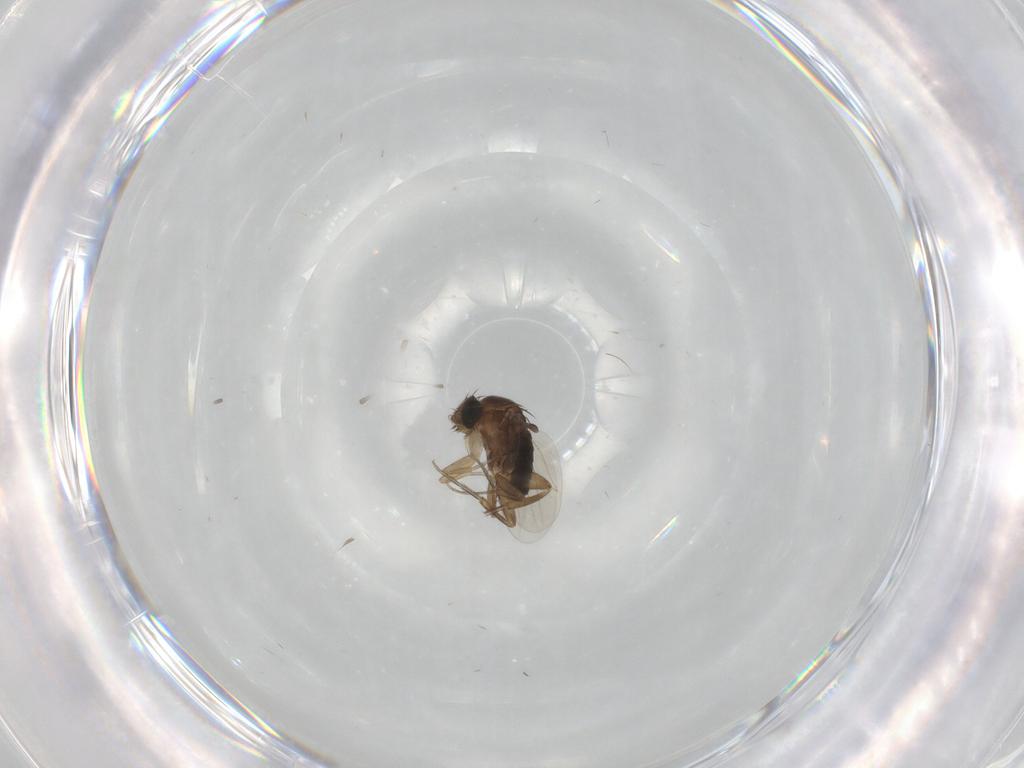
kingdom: Animalia
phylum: Arthropoda
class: Insecta
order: Diptera
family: Phoridae
